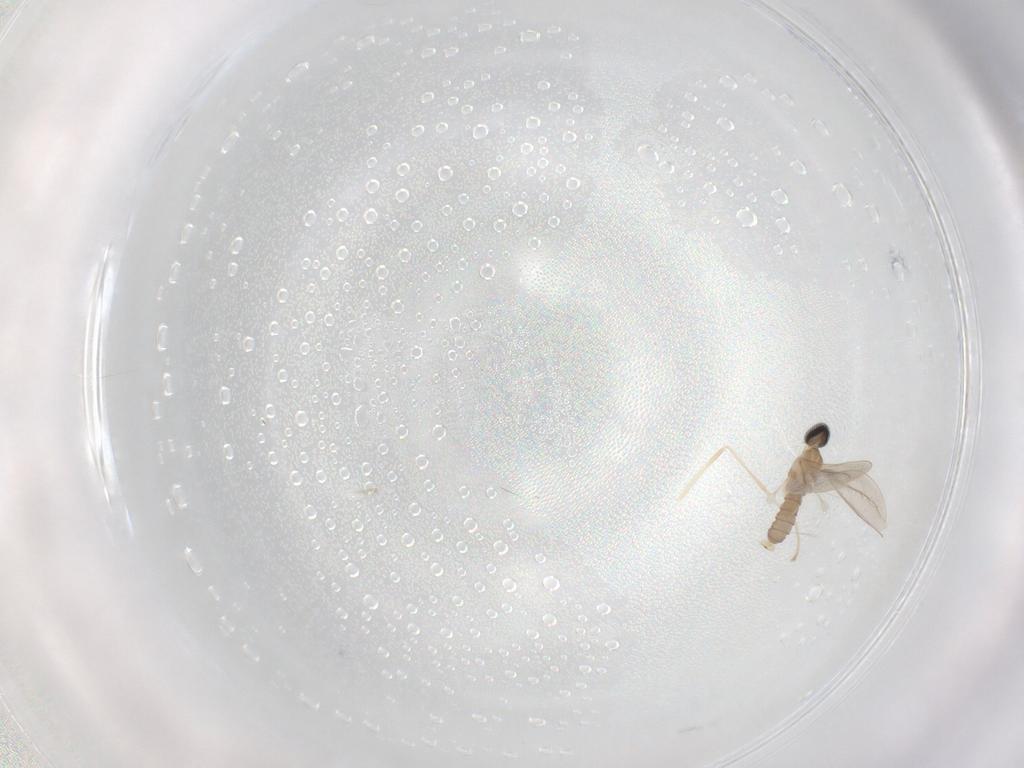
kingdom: Animalia
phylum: Arthropoda
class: Insecta
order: Diptera
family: Cecidomyiidae
